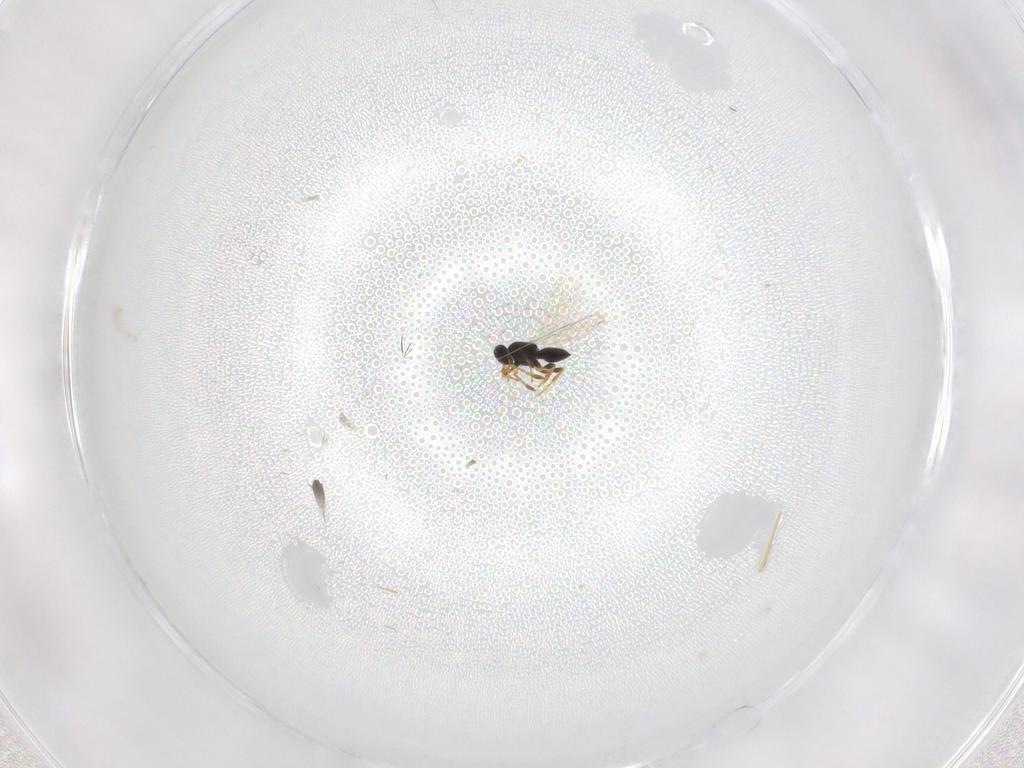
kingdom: Animalia
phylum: Arthropoda
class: Insecta
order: Hymenoptera
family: Platygastridae
